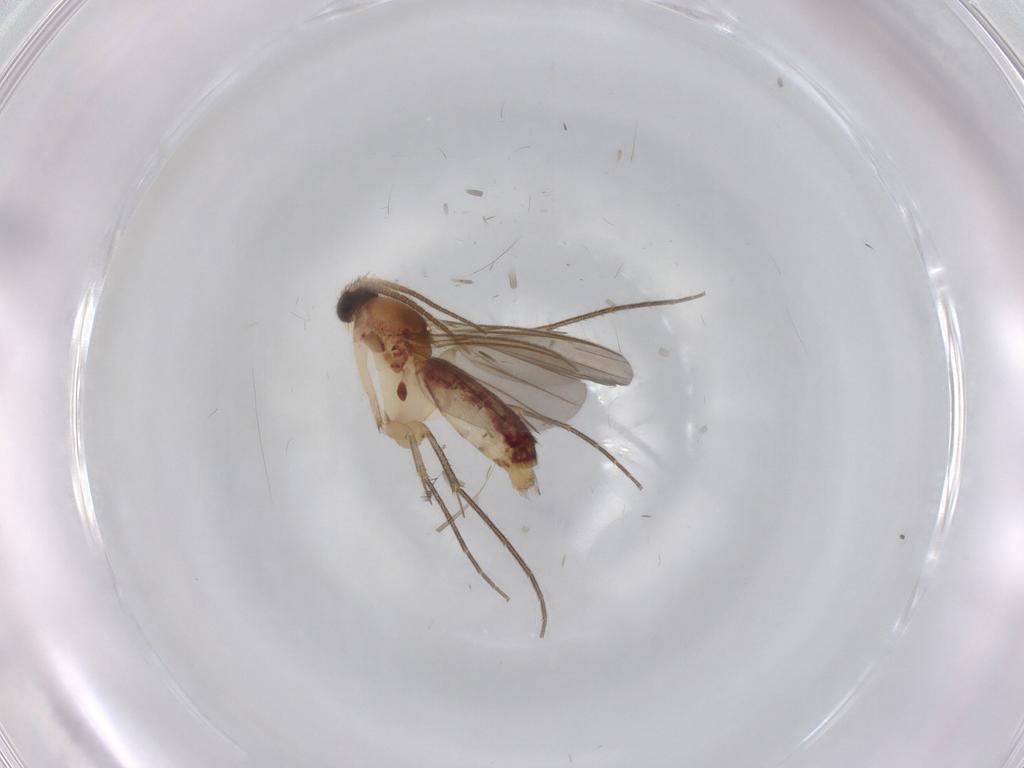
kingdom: Animalia
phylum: Arthropoda
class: Insecta
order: Diptera
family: Mycetophilidae
